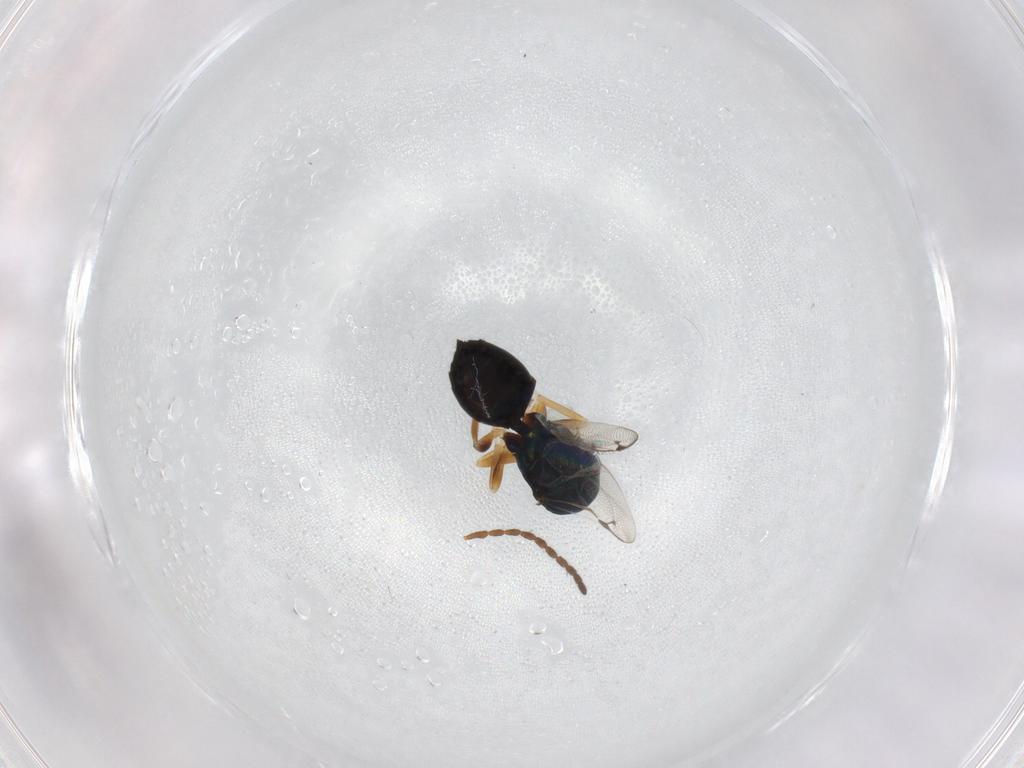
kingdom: Animalia
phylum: Arthropoda
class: Insecta
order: Hymenoptera
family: Pteromalidae
